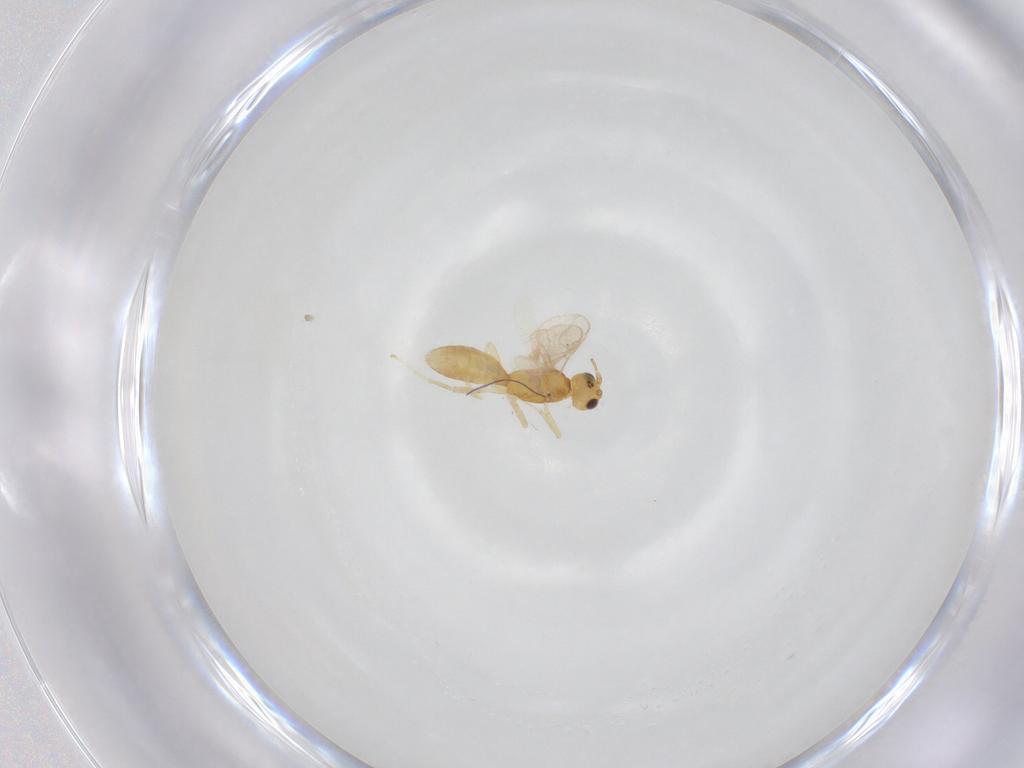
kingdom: Animalia
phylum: Arthropoda
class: Insecta
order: Hymenoptera
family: Braconidae
